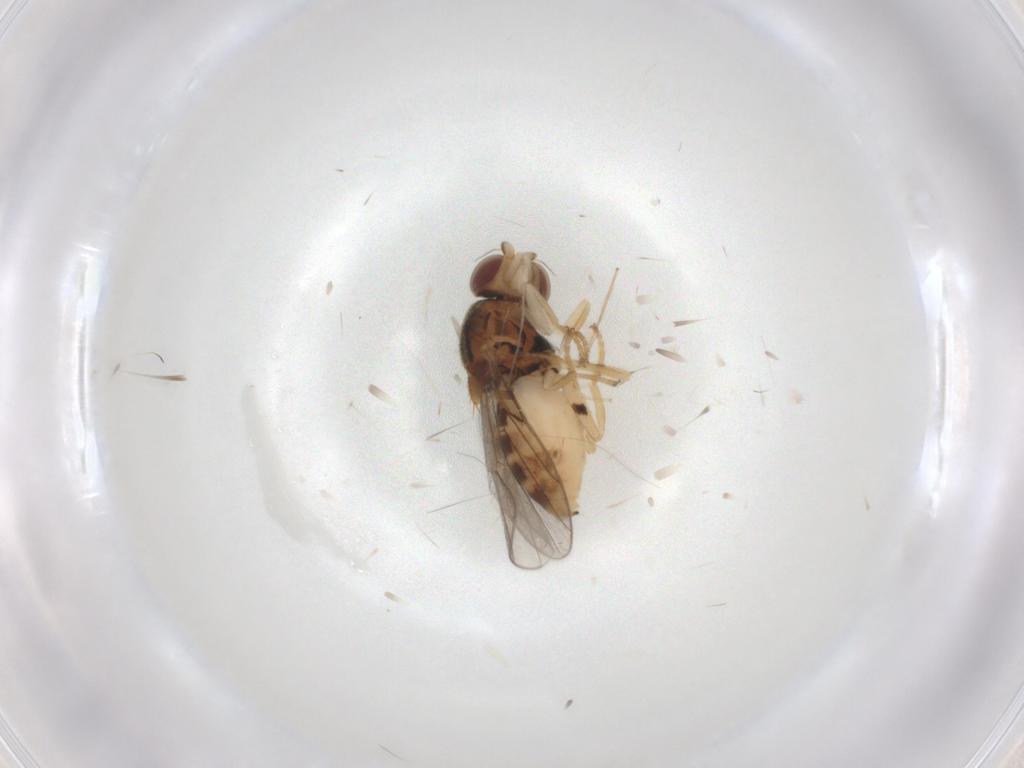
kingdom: Animalia
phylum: Arthropoda
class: Insecta
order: Diptera
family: Chloropidae
